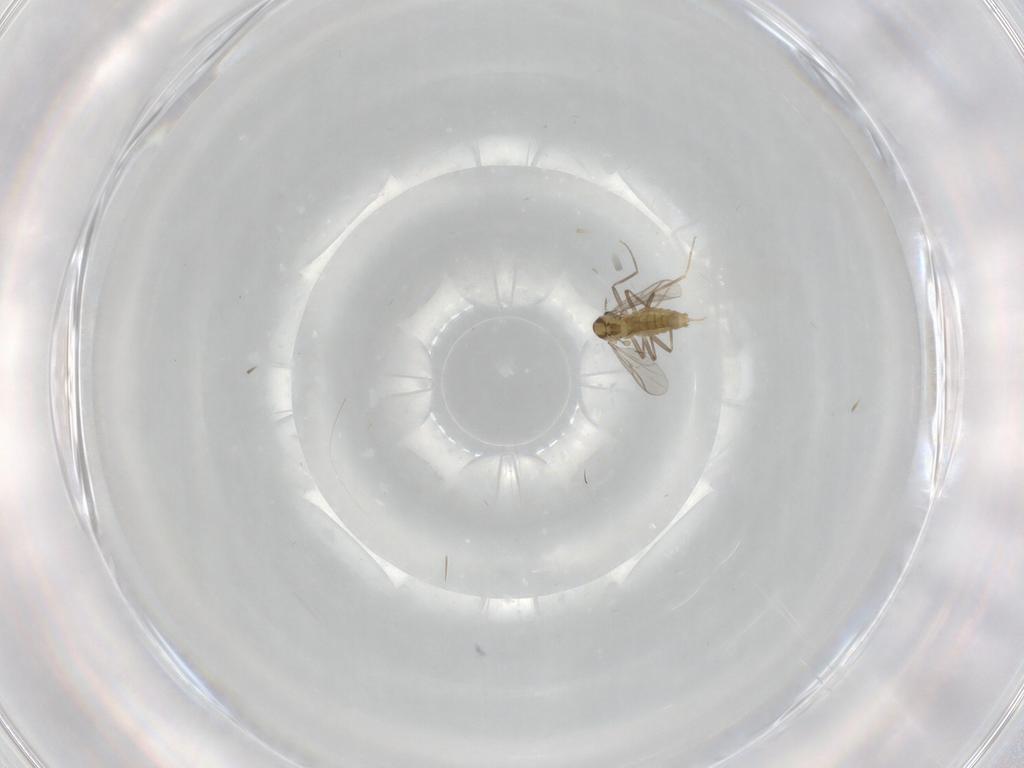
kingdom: Animalia
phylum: Arthropoda
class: Insecta
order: Diptera
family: Chironomidae
